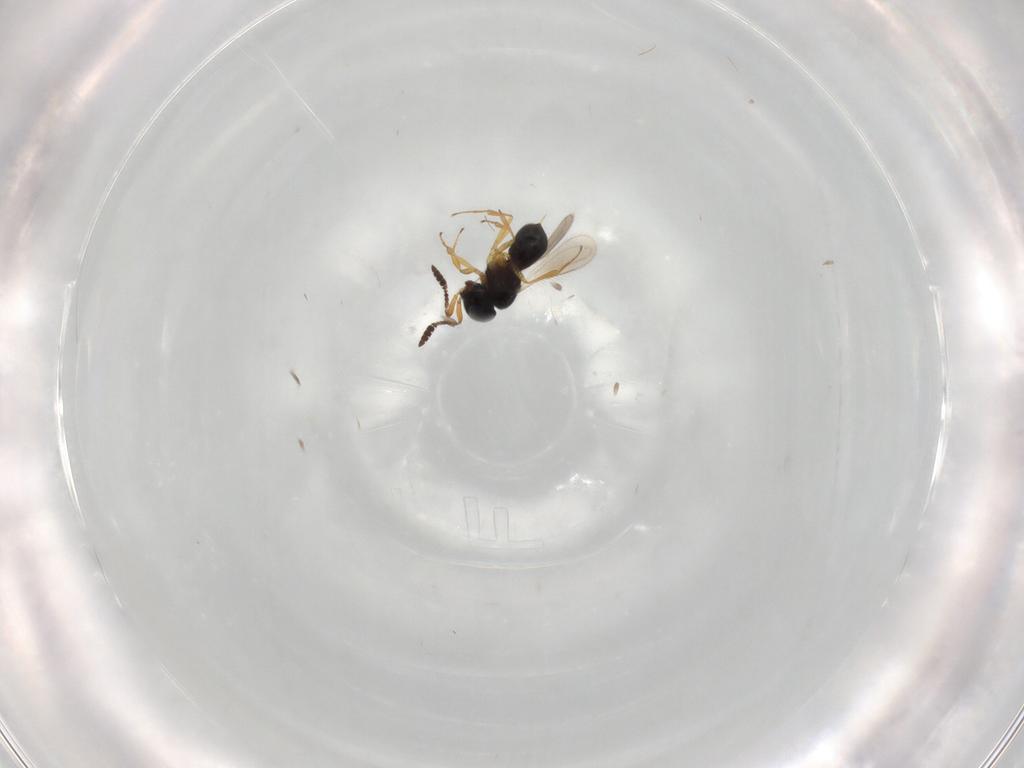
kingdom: Animalia
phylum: Arthropoda
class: Insecta
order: Hymenoptera
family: Scelionidae
